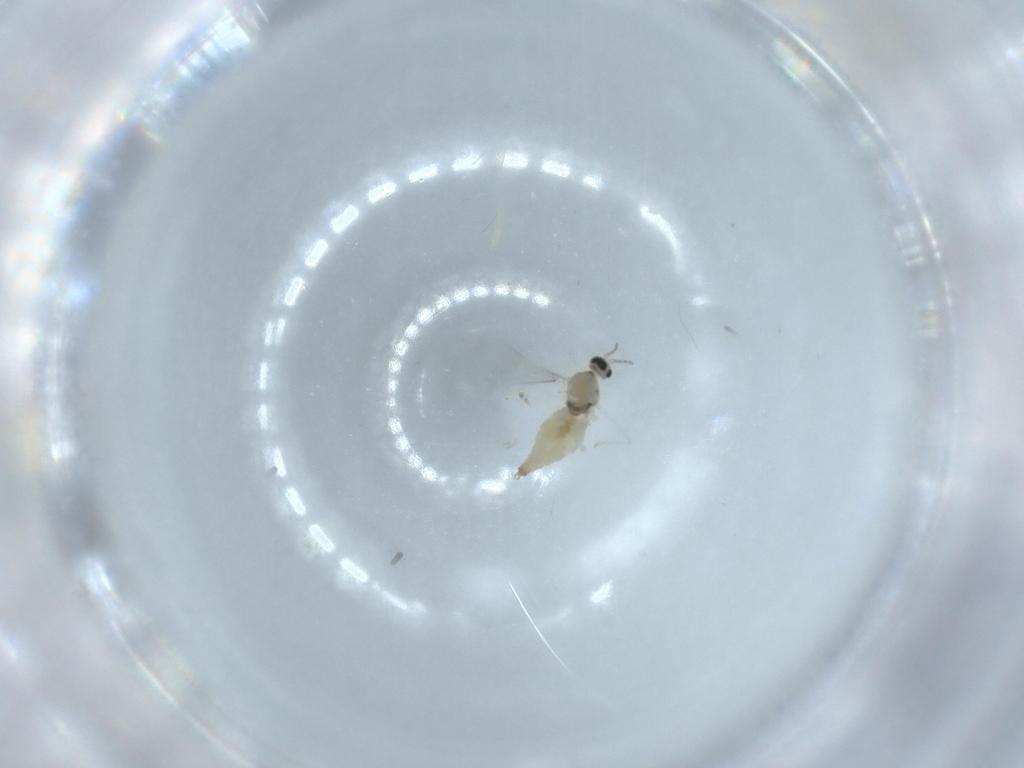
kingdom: Animalia
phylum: Arthropoda
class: Insecta
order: Diptera
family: Cecidomyiidae
